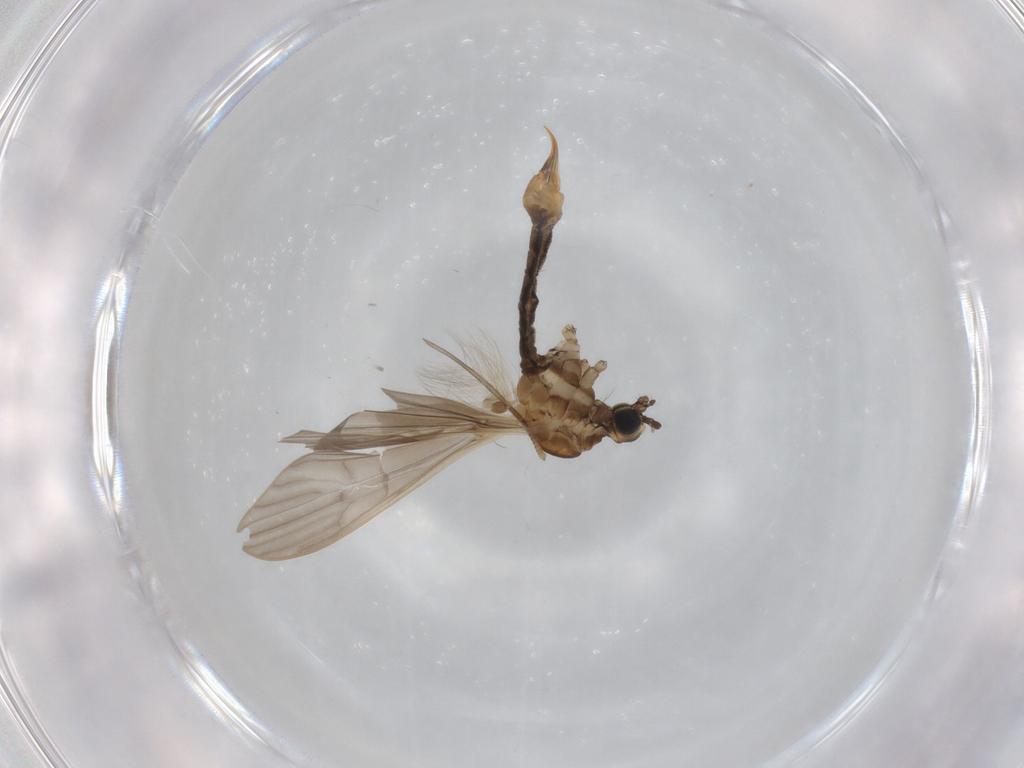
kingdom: Animalia
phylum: Arthropoda
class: Insecta
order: Diptera
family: Limoniidae
